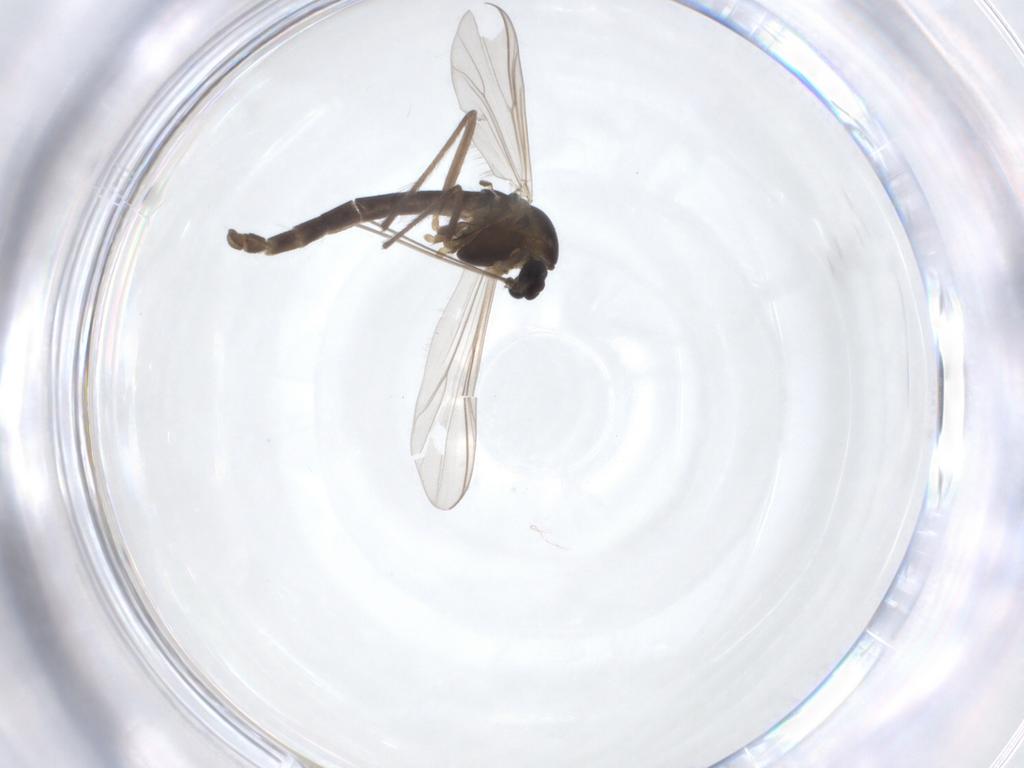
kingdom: Animalia
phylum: Arthropoda
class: Insecta
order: Diptera
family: Chironomidae
